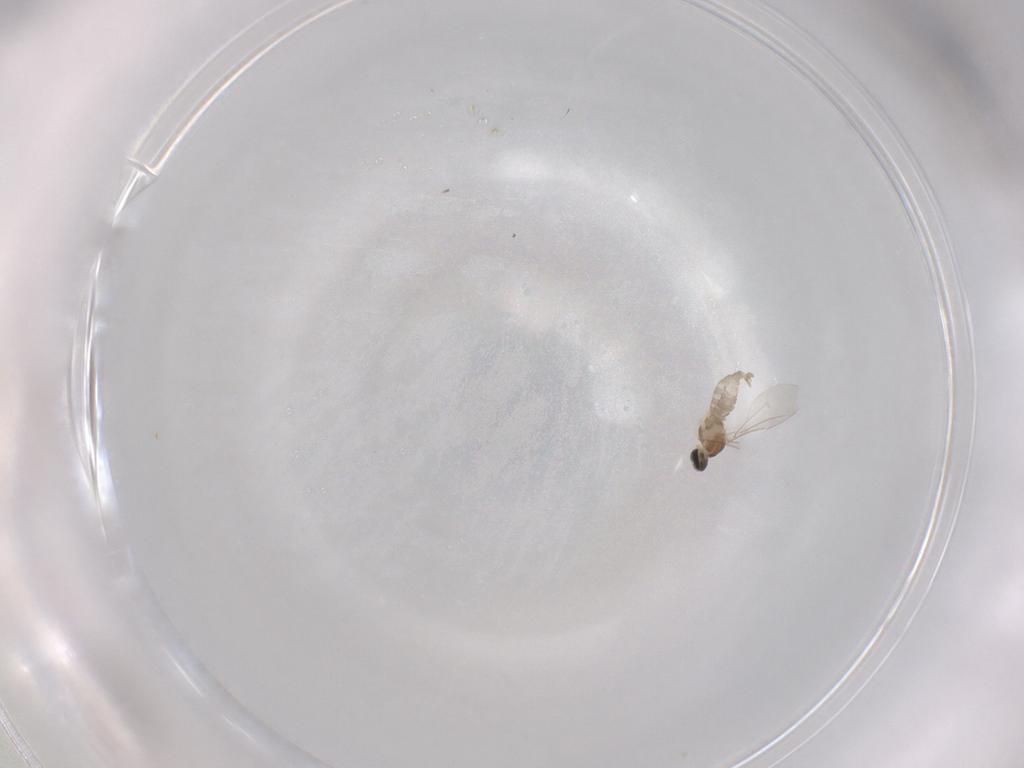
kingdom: Animalia
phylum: Arthropoda
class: Insecta
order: Diptera
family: Cecidomyiidae
